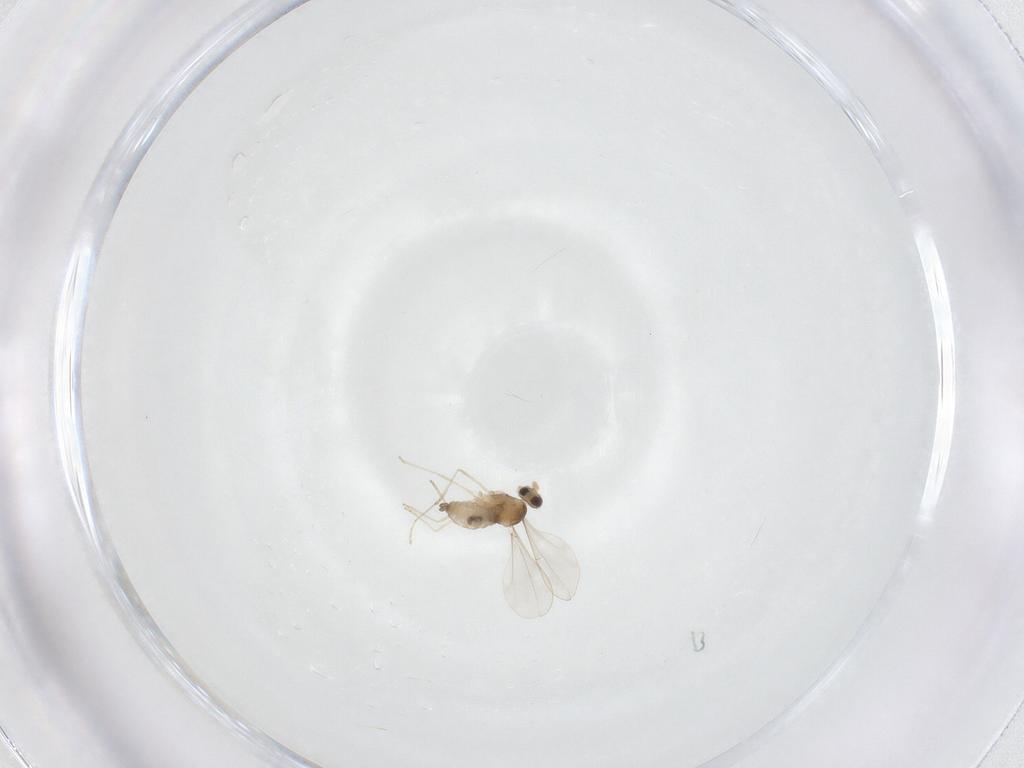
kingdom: Animalia
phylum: Arthropoda
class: Insecta
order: Diptera
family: Cecidomyiidae
